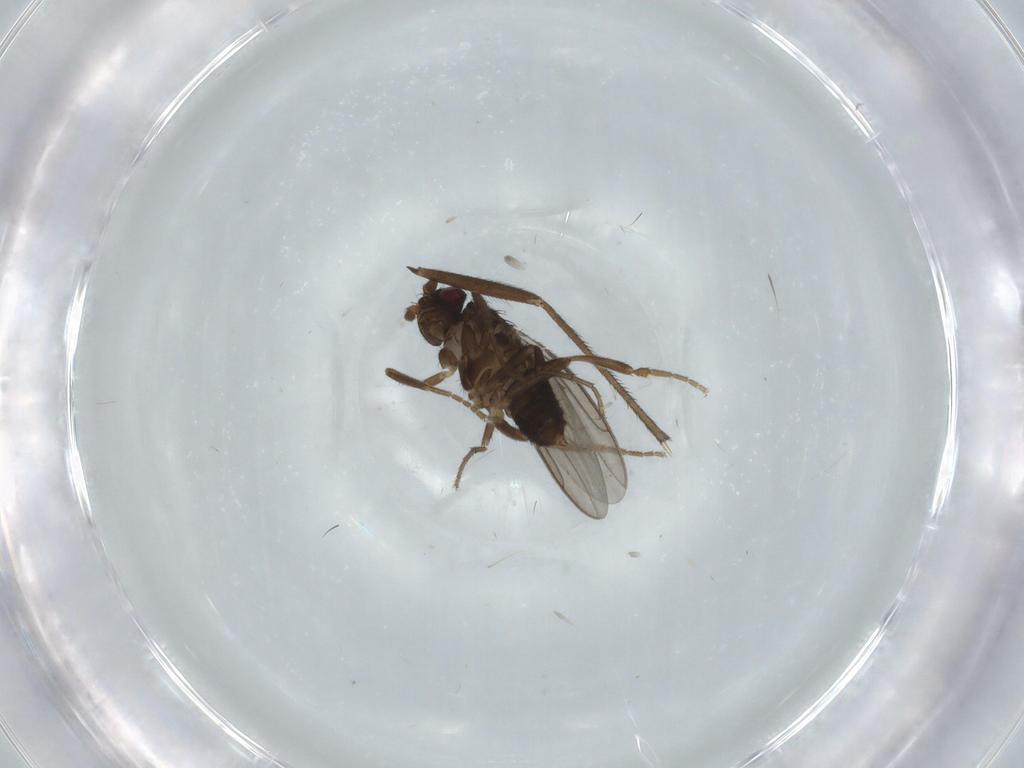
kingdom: Animalia
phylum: Arthropoda
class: Insecta
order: Diptera
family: Sphaeroceridae
